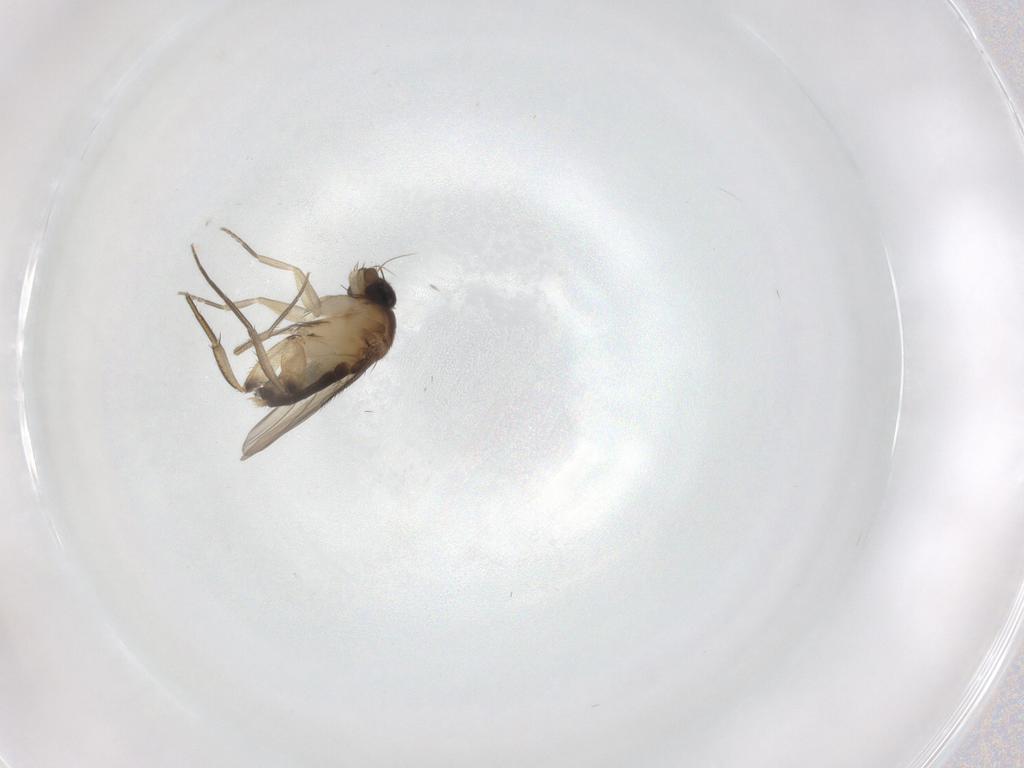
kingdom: Animalia
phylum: Arthropoda
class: Insecta
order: Diptera
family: Phoridae
